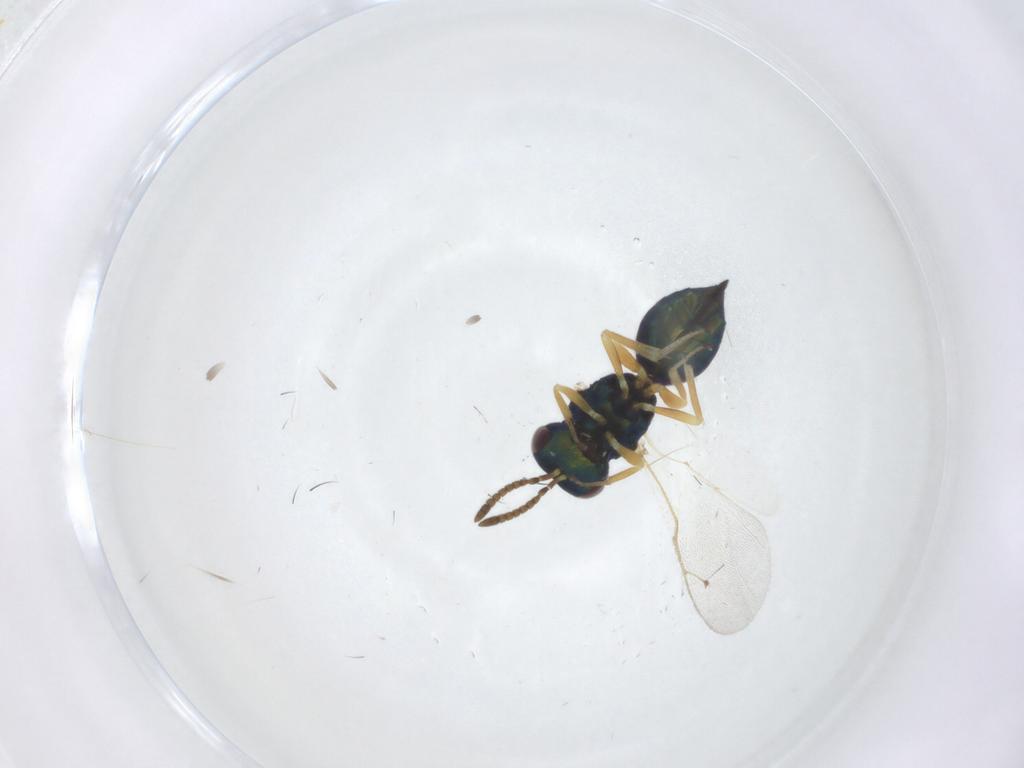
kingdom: Animalia
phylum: Arthropoda
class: Insecta
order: Hymenoptera
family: Pteromalidae
